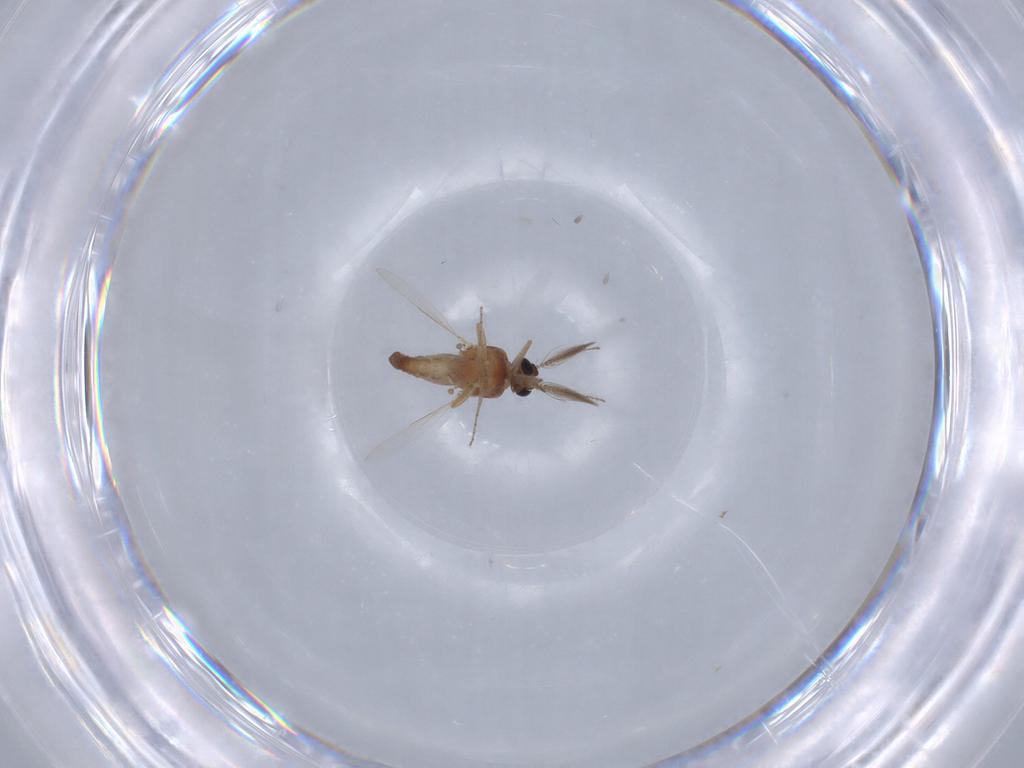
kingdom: Animalia
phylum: Arthropoda
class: Insecta
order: Diptera
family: Ceratopogonidae
